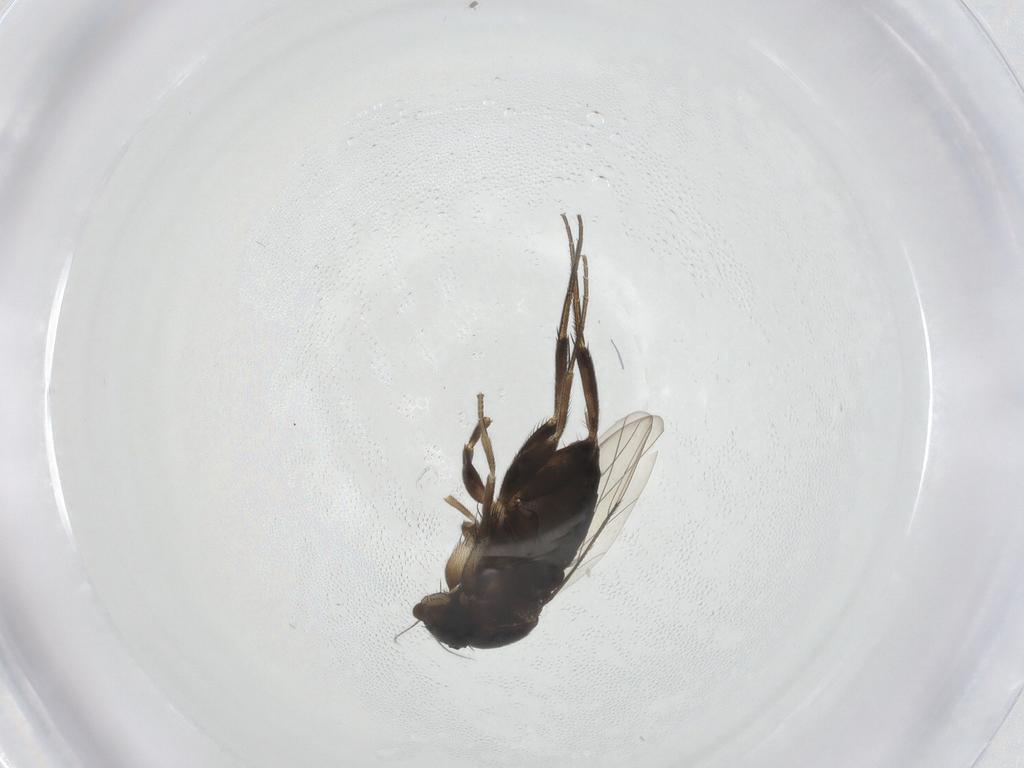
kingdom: Animalia
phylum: Arthropoda
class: Insecta
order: Diptera
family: Phoridae
